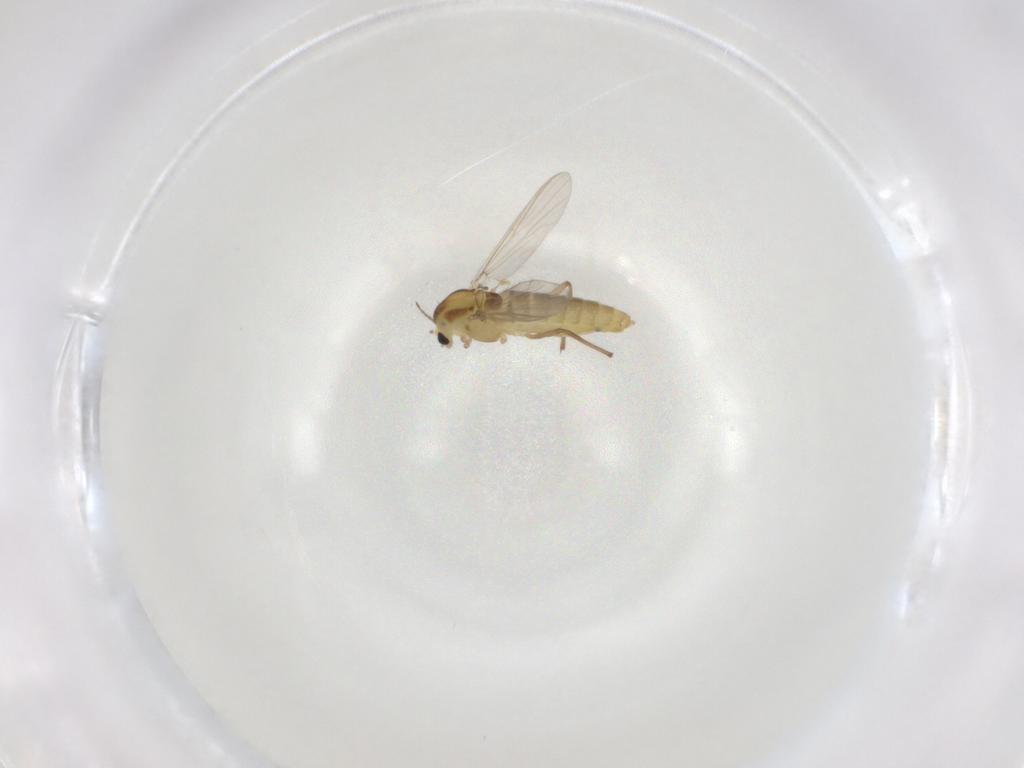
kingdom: Animalia
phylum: Arthropoda
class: Insecta
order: Diptera
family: Chironomidae
